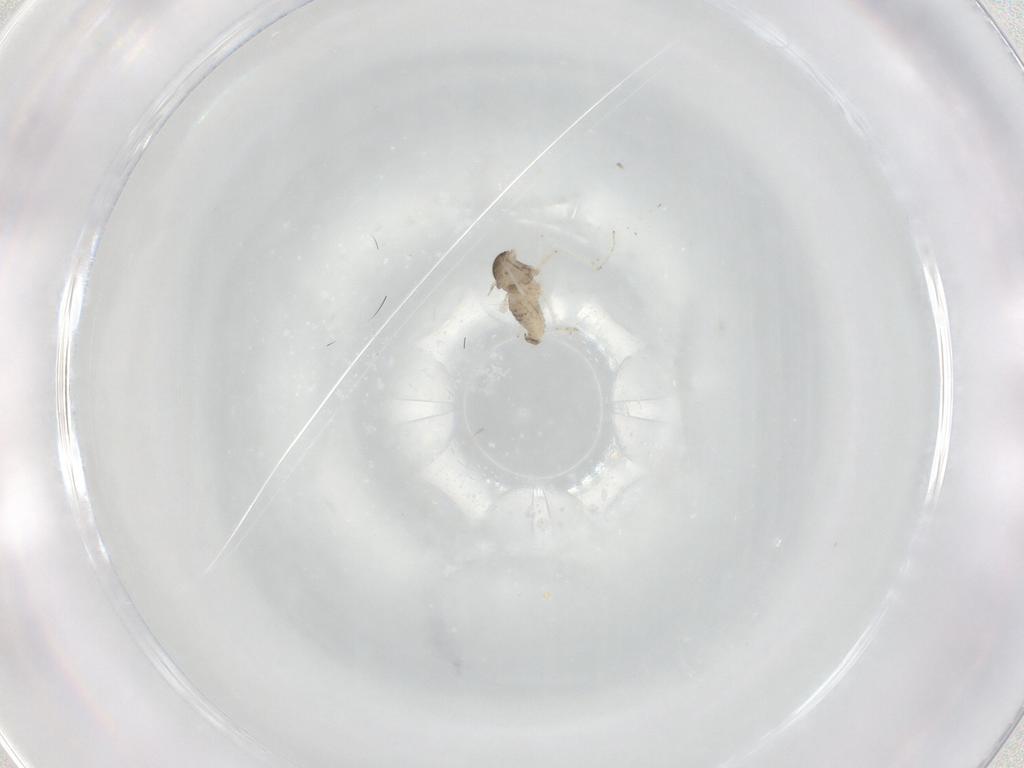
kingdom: Animalia
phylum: Arthropoda
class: Insecta
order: Diptera
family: Cecidomyiidae
